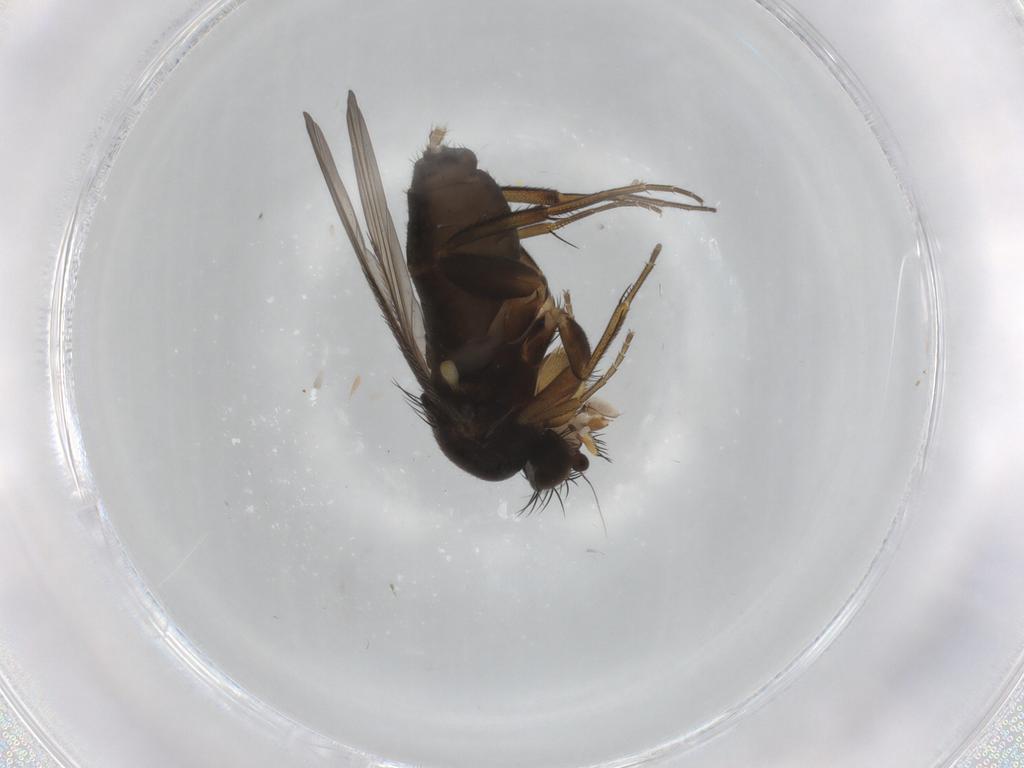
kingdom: Animalia
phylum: Arthropoda
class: Insecta
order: Diptera
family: Phoridae
